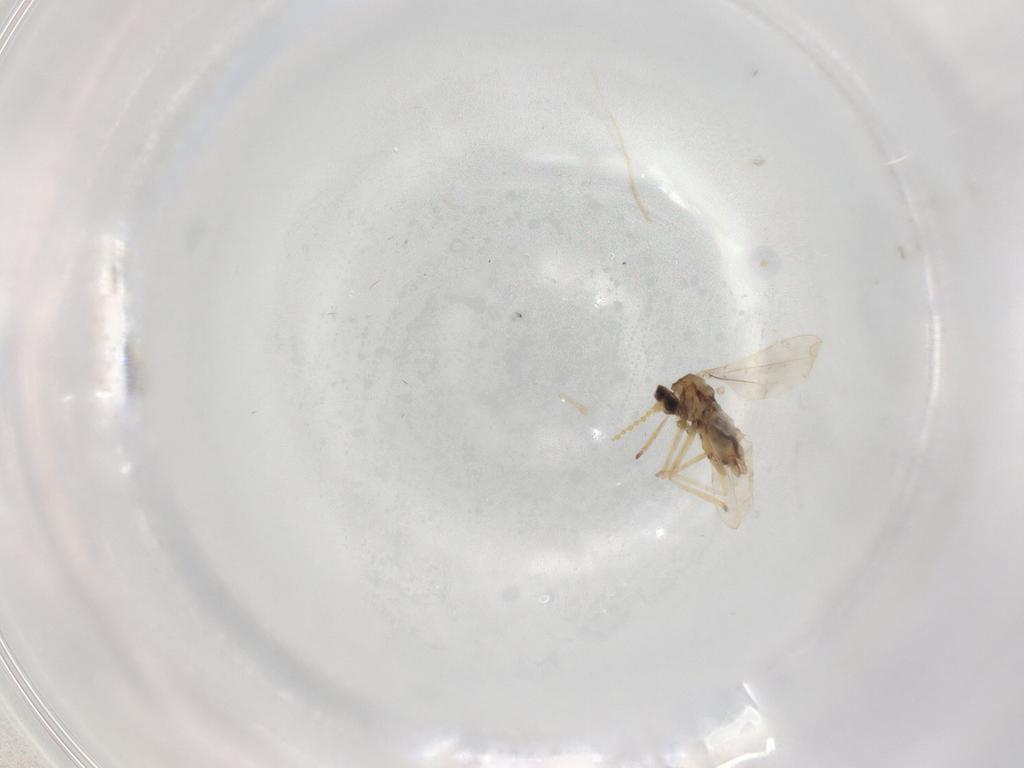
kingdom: Animalia
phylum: Arthropoda
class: Insecta
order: Diptera
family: Cecidomyiidae
